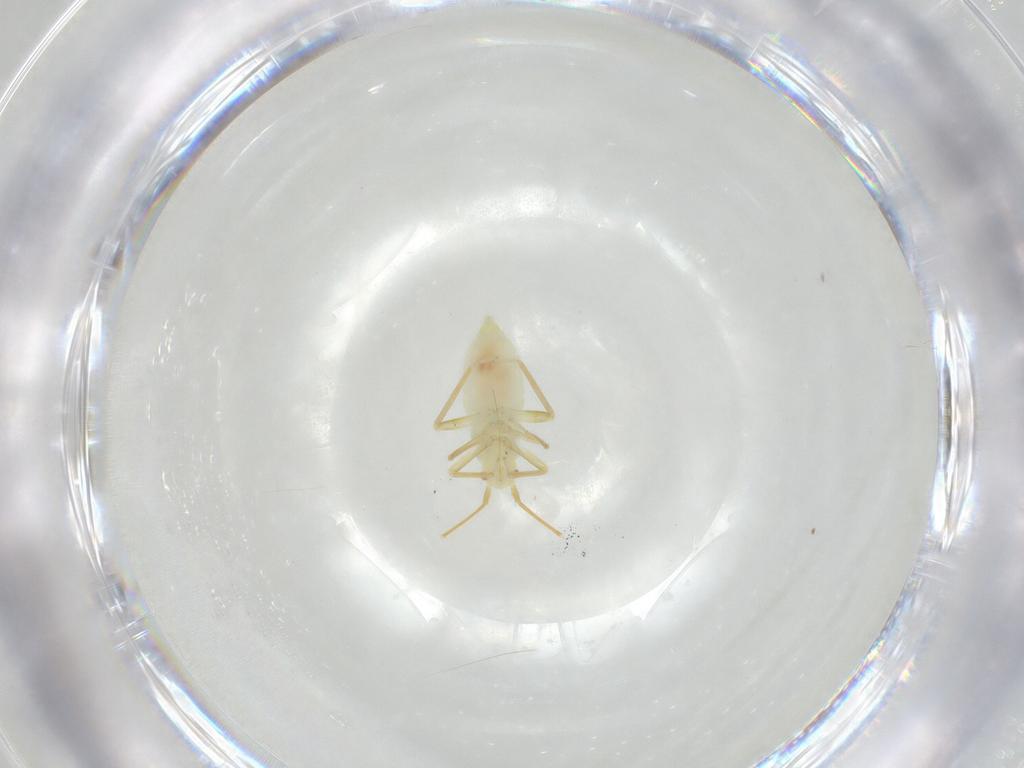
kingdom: Animalia
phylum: Arthropoda
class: Insecta
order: Hemiptera
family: Miridae
